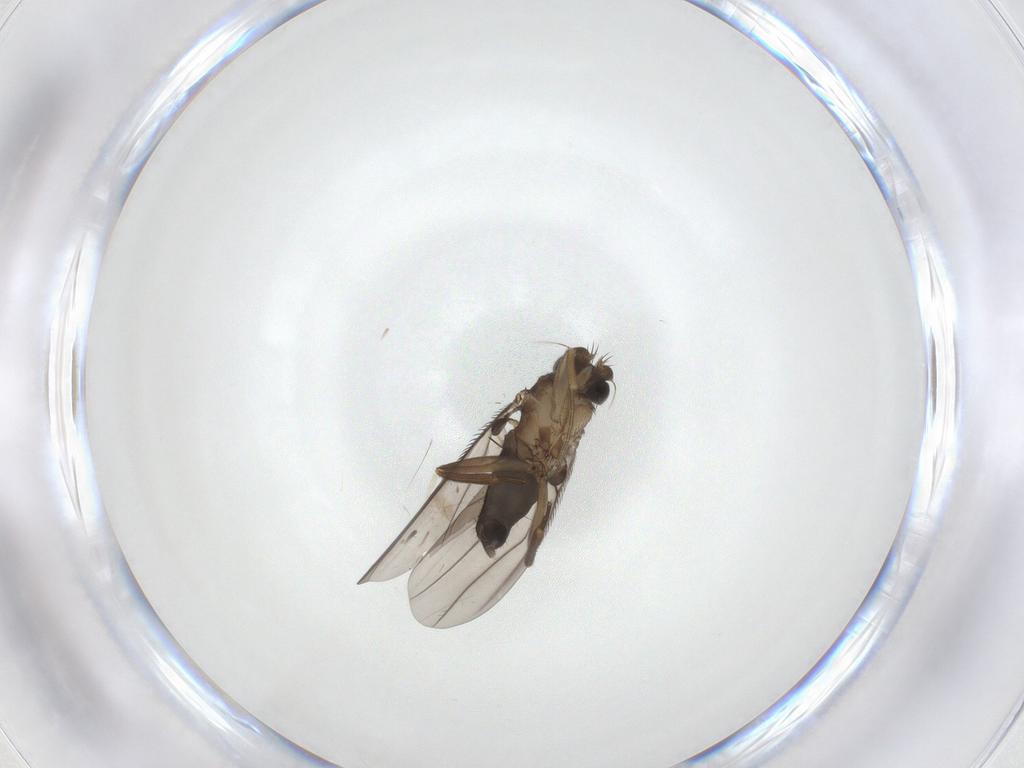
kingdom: Animalia
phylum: Arthropoda
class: Insecta
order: Diptera
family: Phoridae
